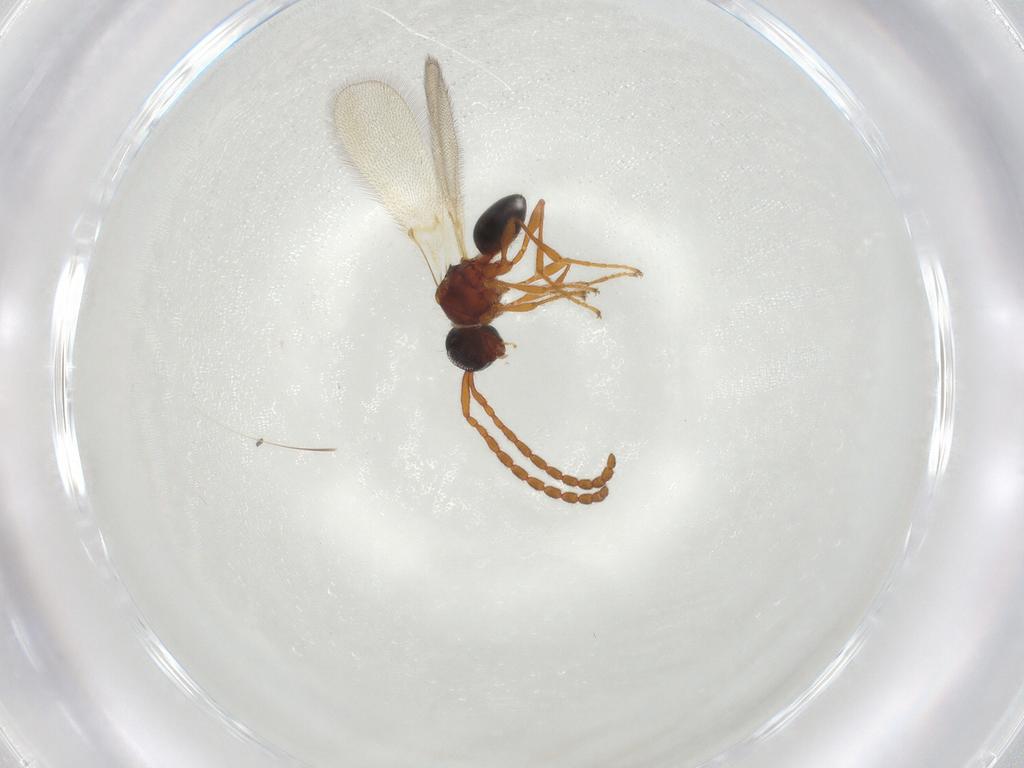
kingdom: Animalia
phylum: Arthropoda
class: Insecta
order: Hymenoptera
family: Diapriidae
